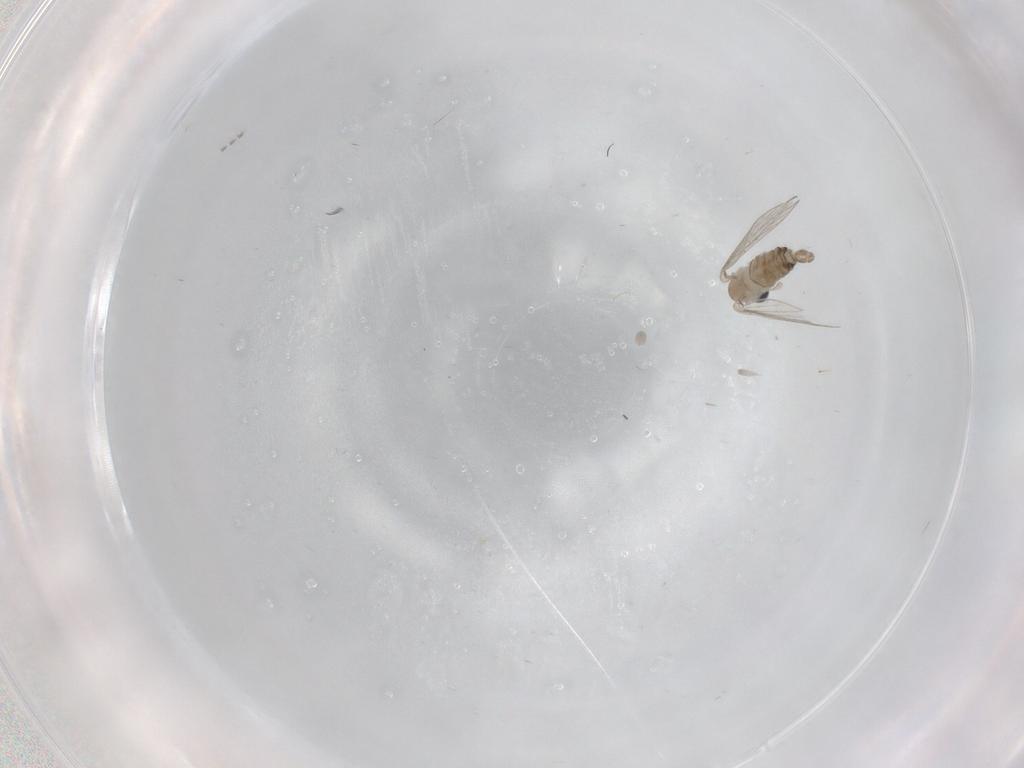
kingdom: Animalia
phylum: Arthropoda
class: Insecta
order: Diptera
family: Psychodidae
